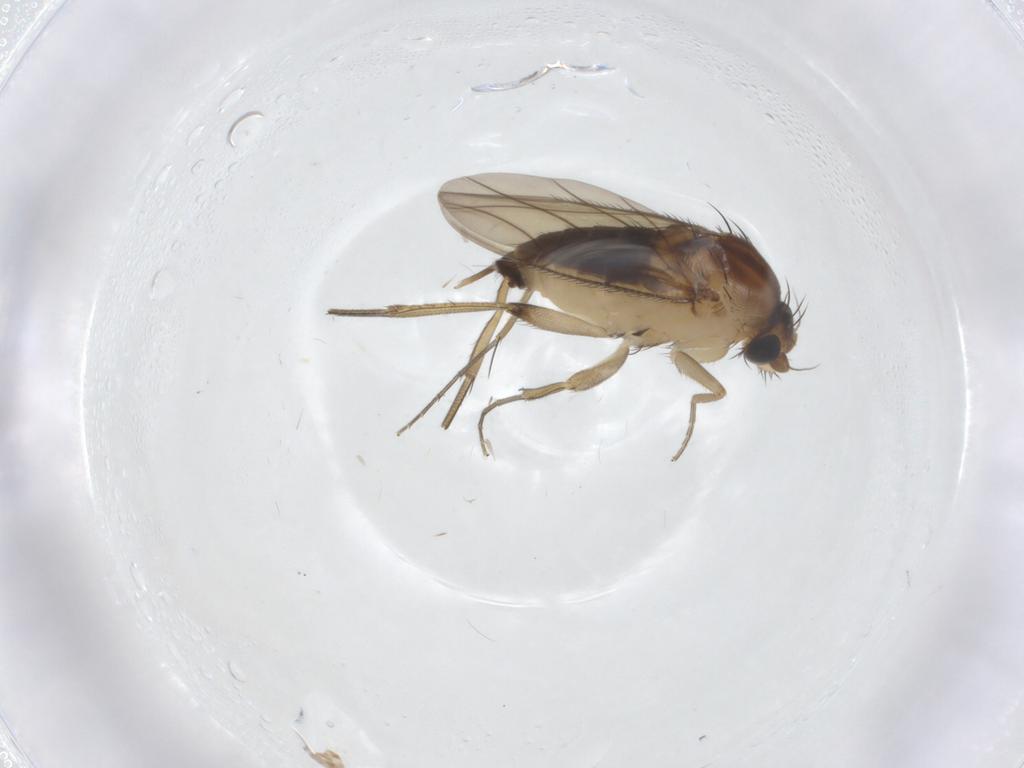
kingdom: Animalia
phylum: Arthropoda
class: Insecta
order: Diptera
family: Phoridae
